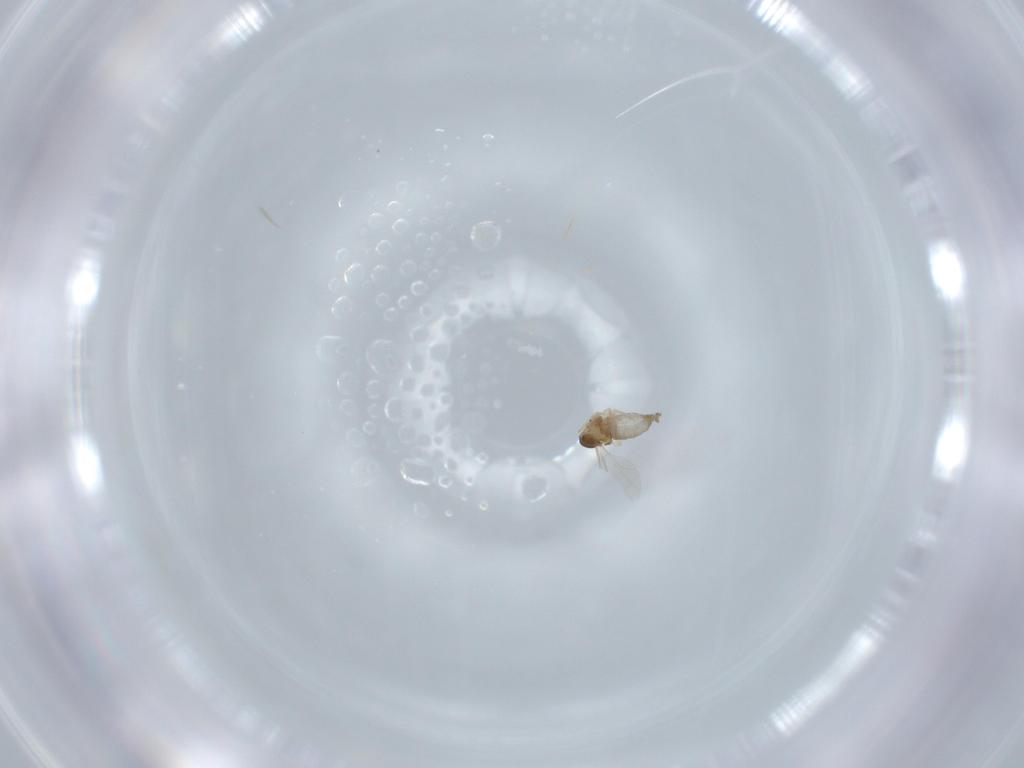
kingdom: Animalia
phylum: Arthropoda
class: Insecta
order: Diptera
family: Cecidomyiidae
